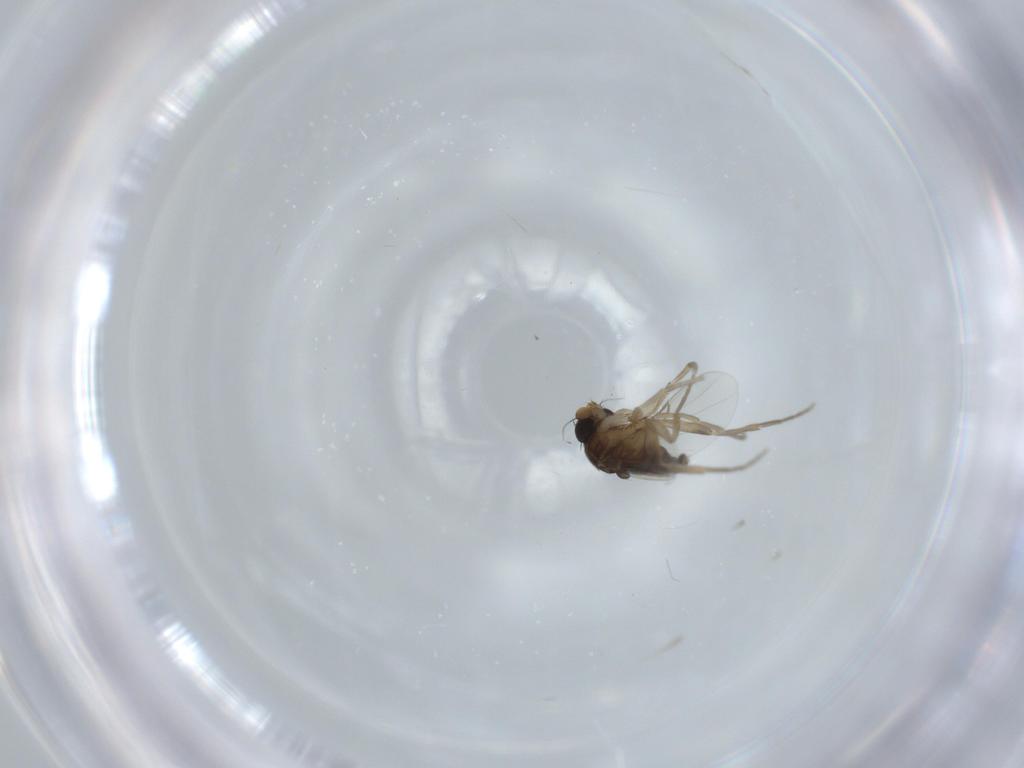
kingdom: Animalia
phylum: Arthropoda
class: Insecta
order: Diptera
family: Phoridae
